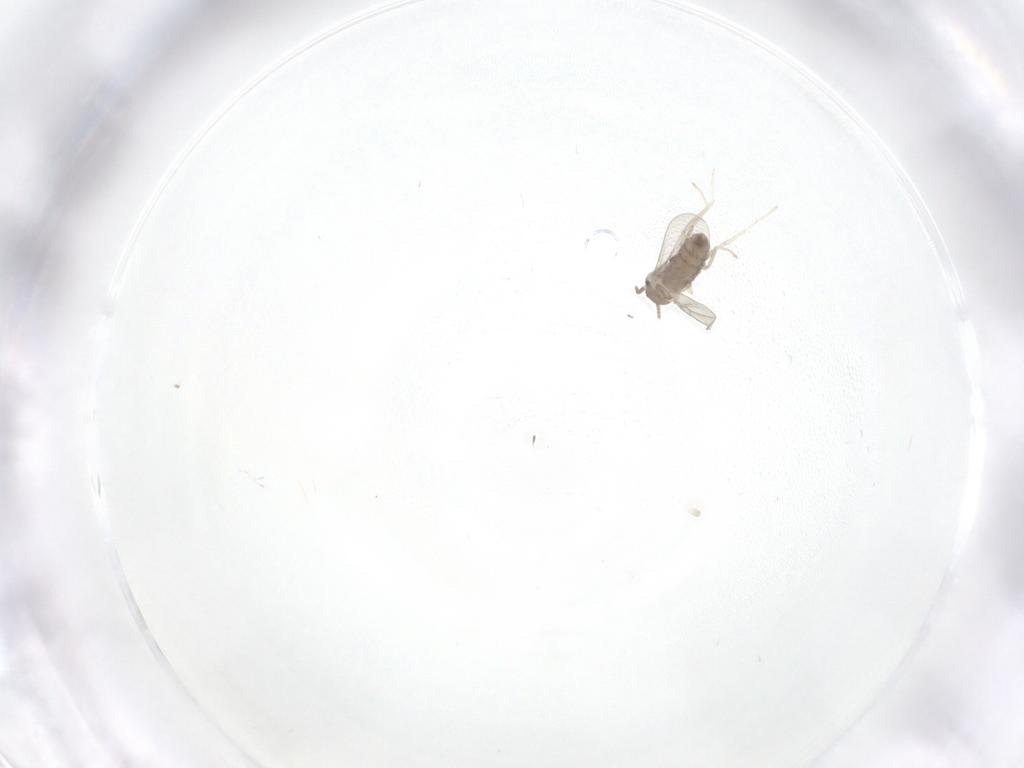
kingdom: Animalia
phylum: Arthropoda
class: Insecta
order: Diptera
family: Cecidomyiidae
